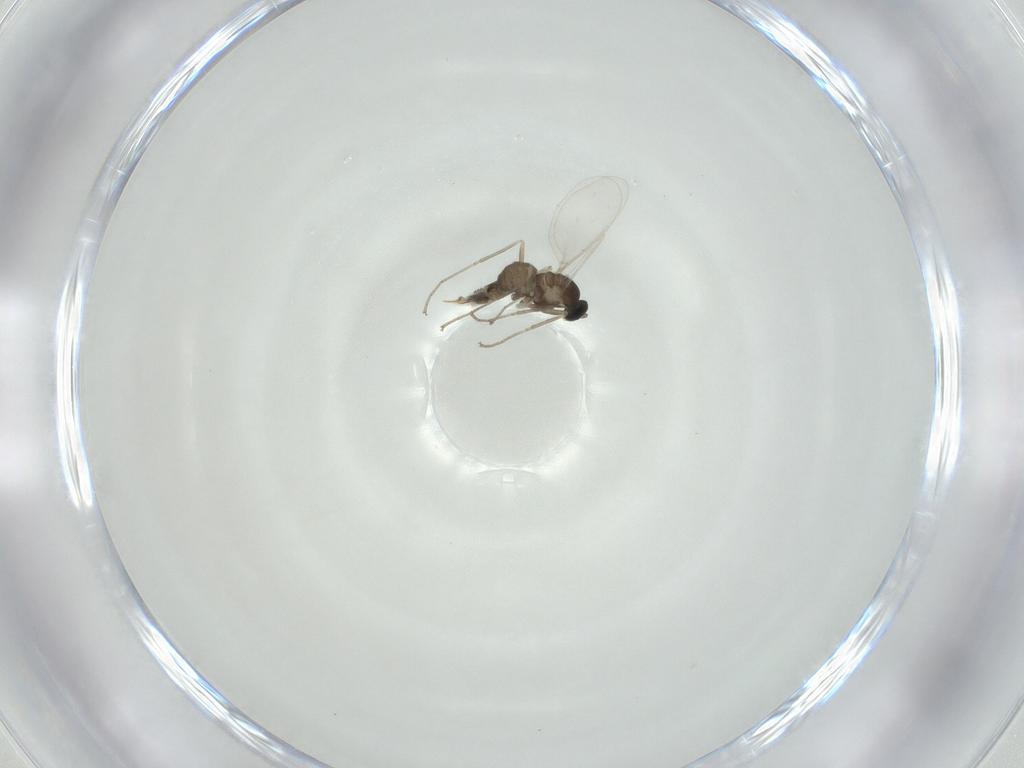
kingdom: Animalia
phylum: Arthropoda
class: Insecta
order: Diptera
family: Cecidomyiidae
